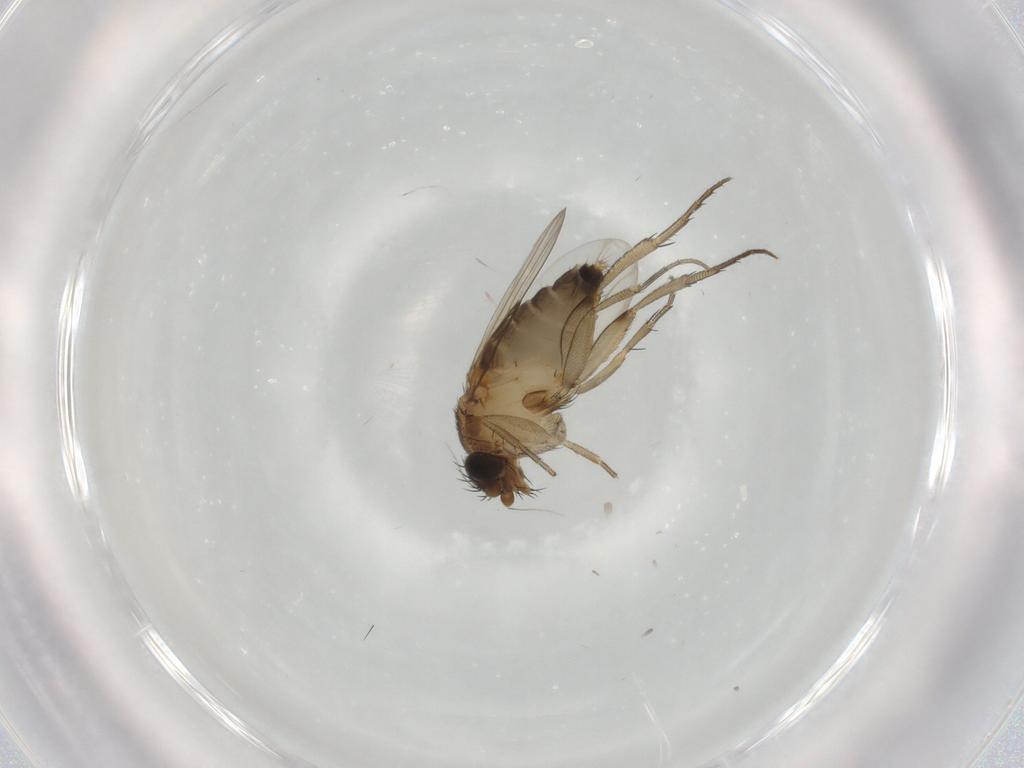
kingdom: Animalia
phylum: Arthropoda
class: Insecta
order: Diptera
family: Phoridae
